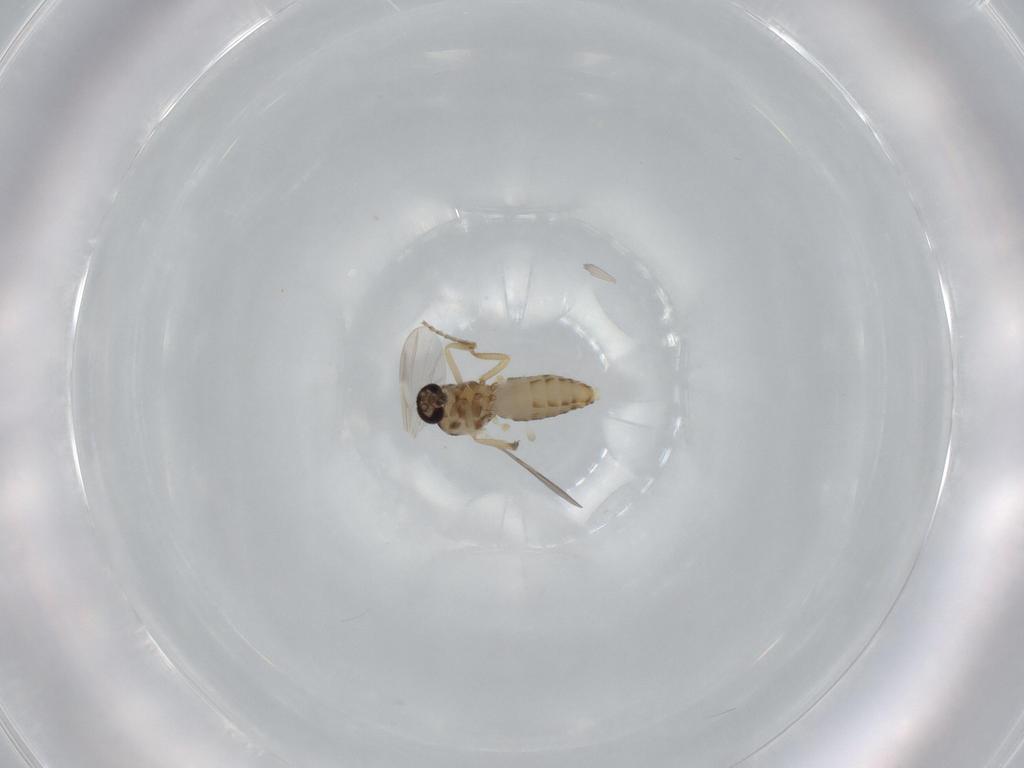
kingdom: Animalia
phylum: Arthropoda
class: Insecta
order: Diptera
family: Ceratopogonidae
